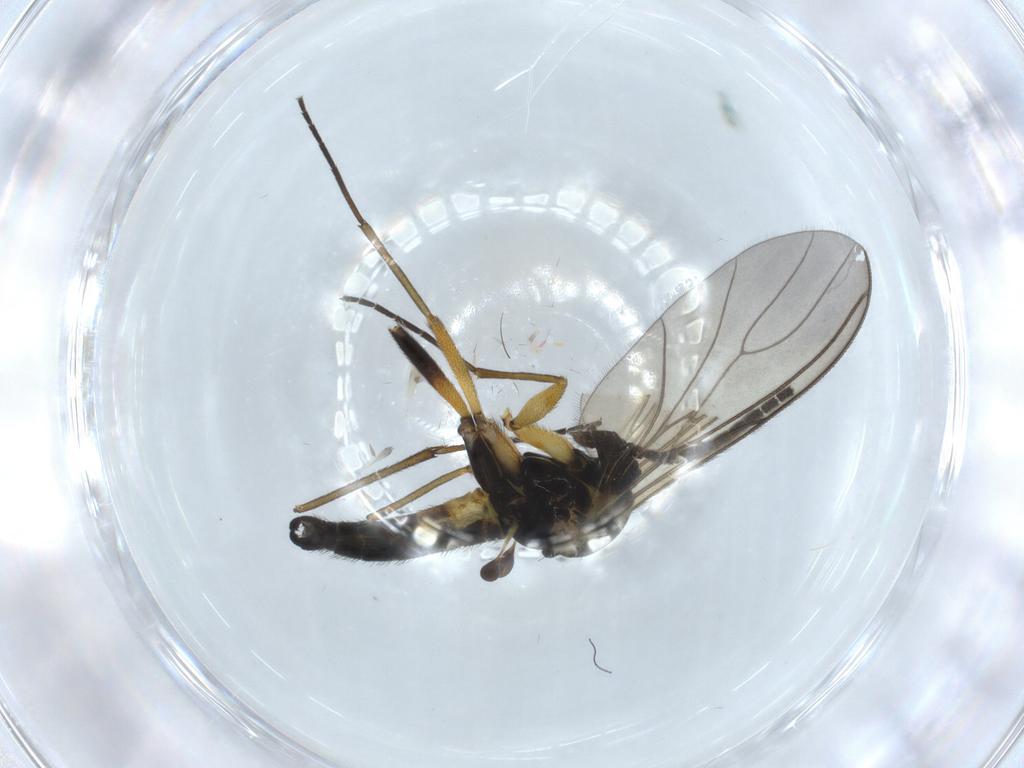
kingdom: Animalia
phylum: Arthropoda
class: Insecta
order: Diptera
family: Sciaridae
